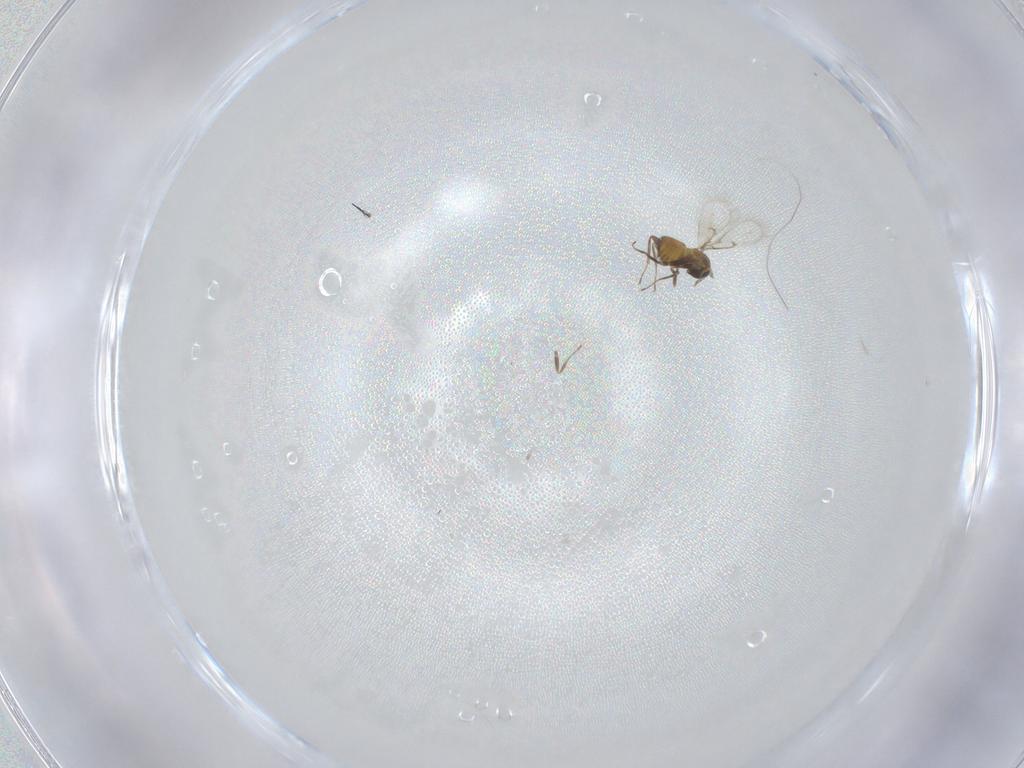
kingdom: Animalia
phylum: Arthropoda
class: Insecta
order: Hymenoptera
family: Trichogrammatidae
